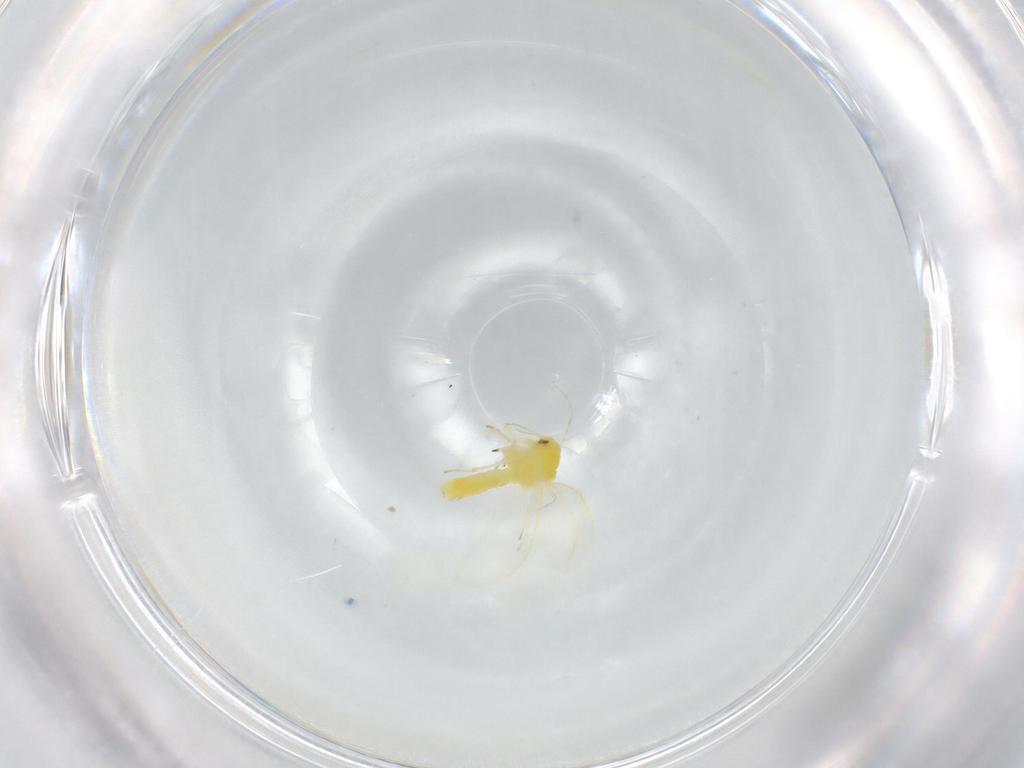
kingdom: Animalia
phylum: Arthropoda
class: Insecta
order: Hemiptera
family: Aleyrodidae
